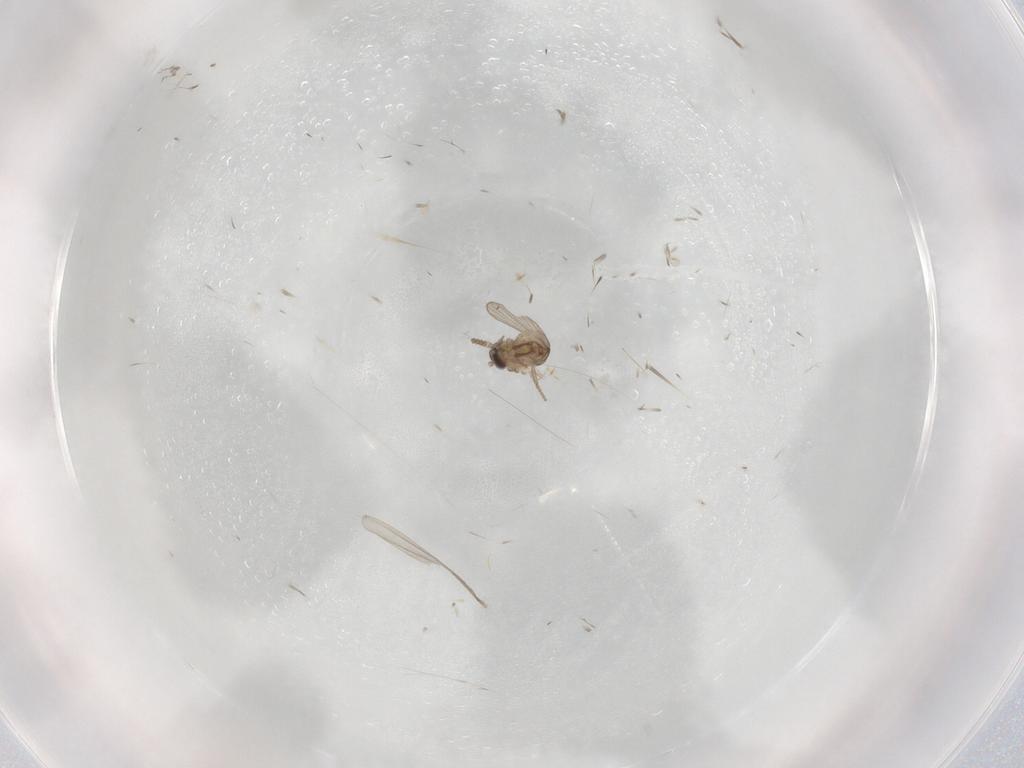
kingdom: Animalia
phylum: Arthropoda
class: Insecta
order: Diptera
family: Psychodidae
